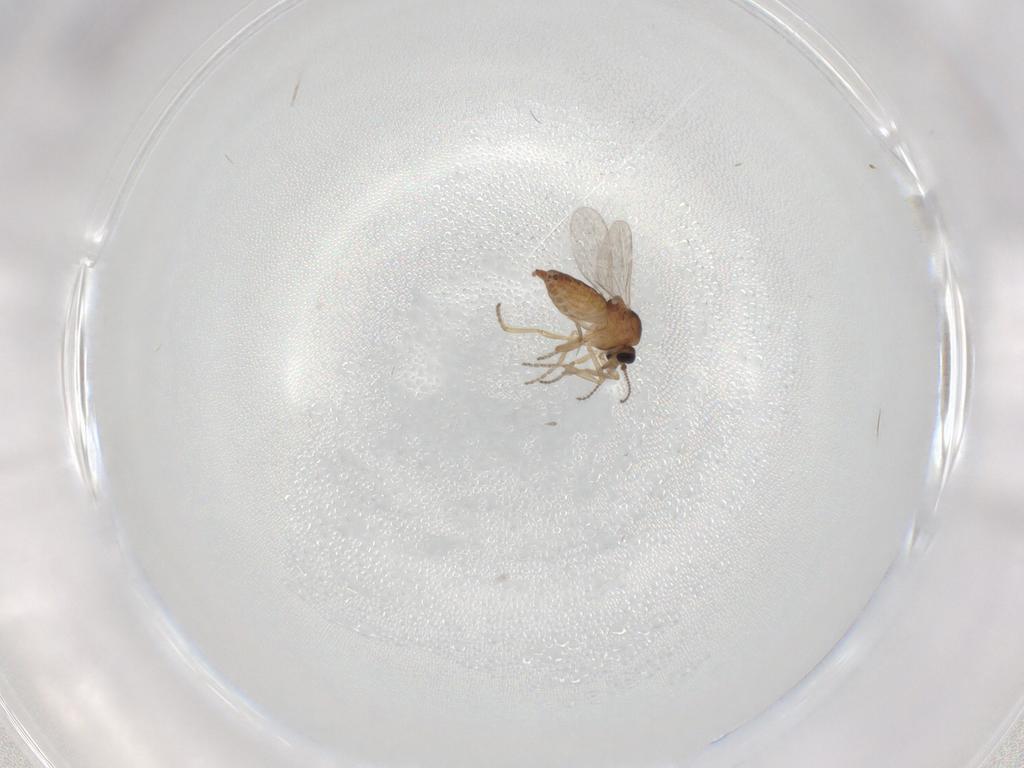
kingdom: Animalia
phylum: Arthropoda
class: Insecta
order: Diptera
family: Ceratopogonidae
